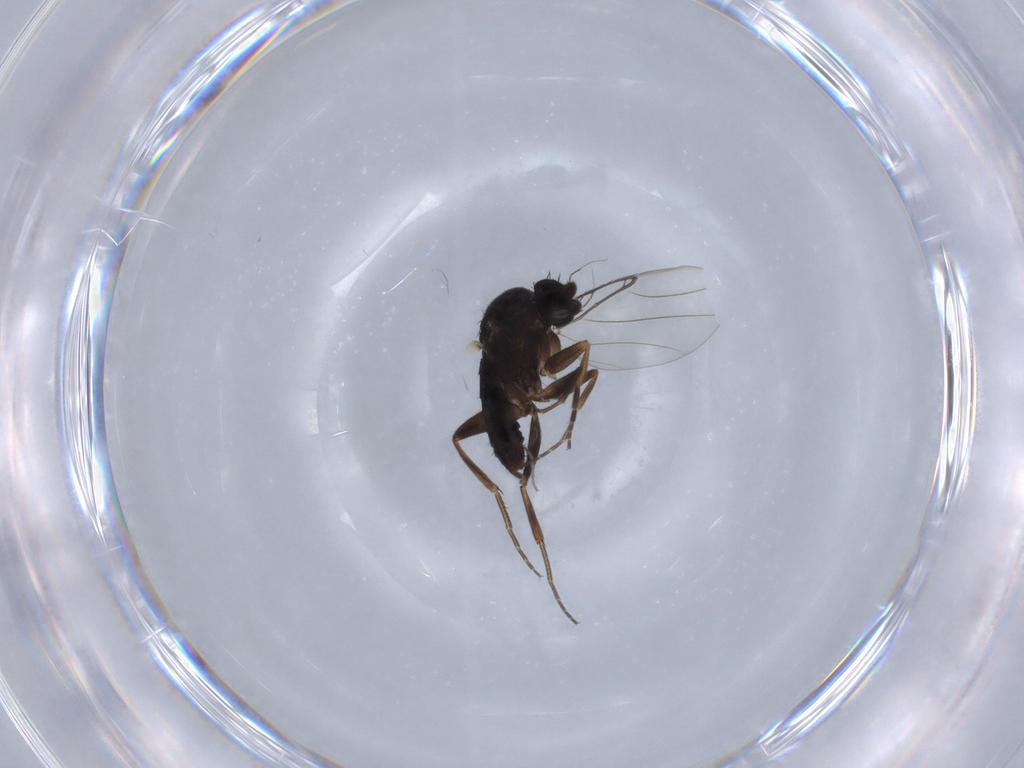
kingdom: Animalia
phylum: Arthropoda
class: Insecta
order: Diptera
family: Phoridae
